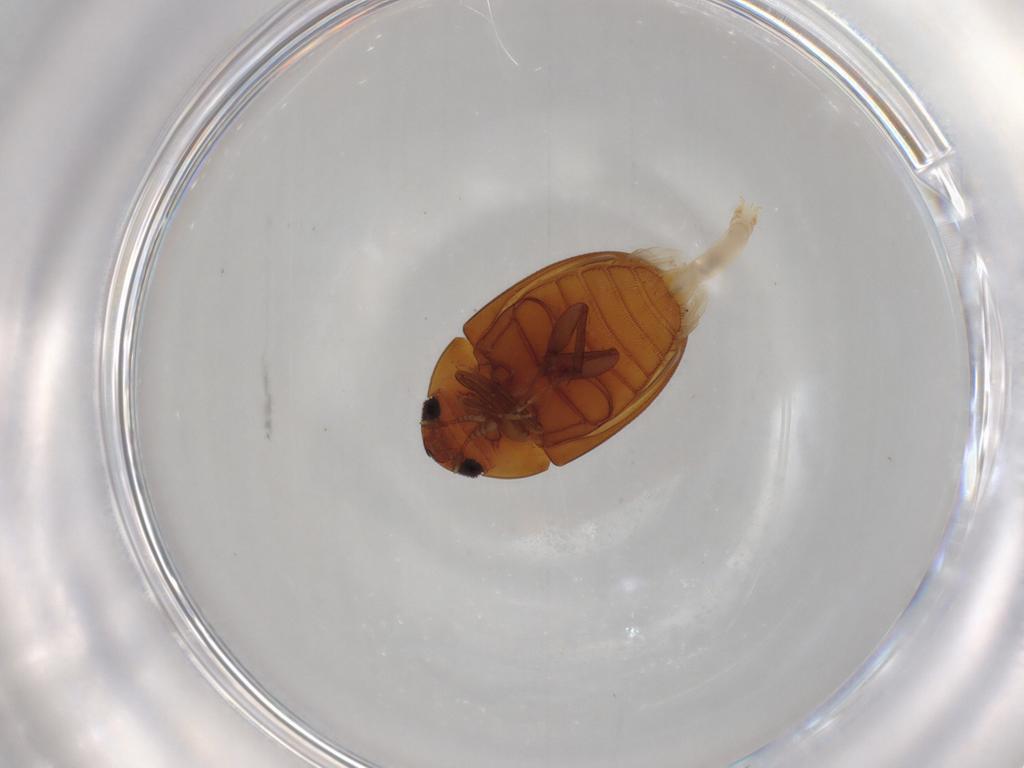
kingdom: Animalia
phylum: Arthropoda
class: Insecta
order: Coleoptera
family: Phalacridae
